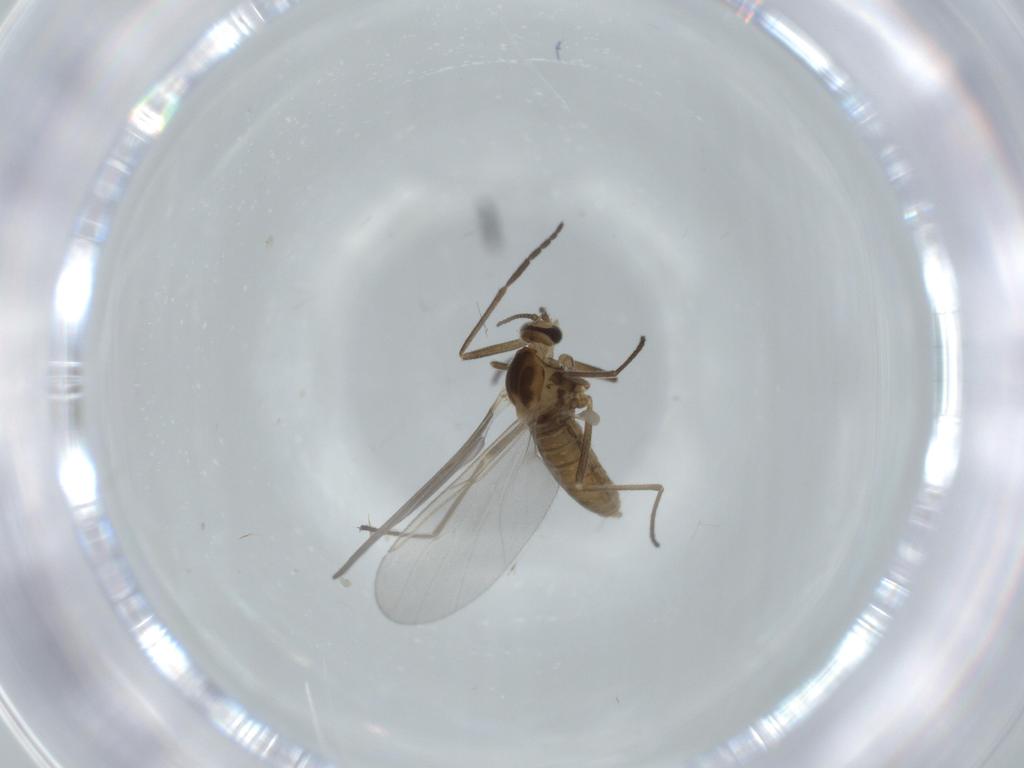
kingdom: Animalia
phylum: Arthropoda
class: Insecta
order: Diptera
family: Cecidomyiidae
